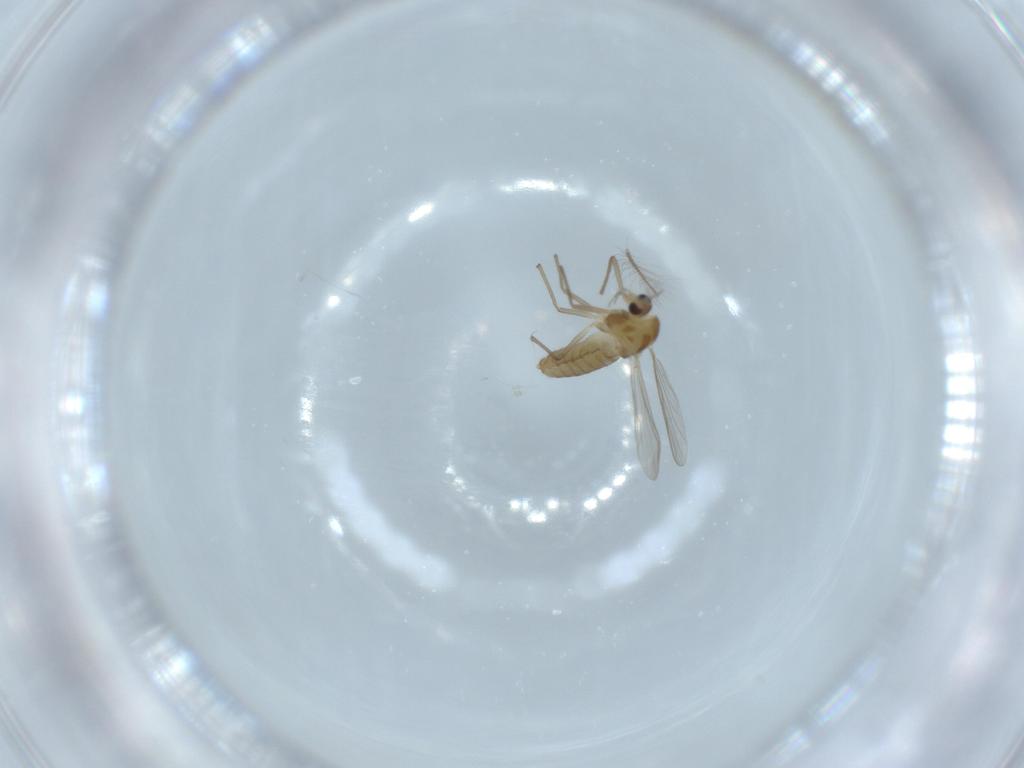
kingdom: Animalia
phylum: Arthropoda
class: Insecta
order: Diptera
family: Chironomidae
